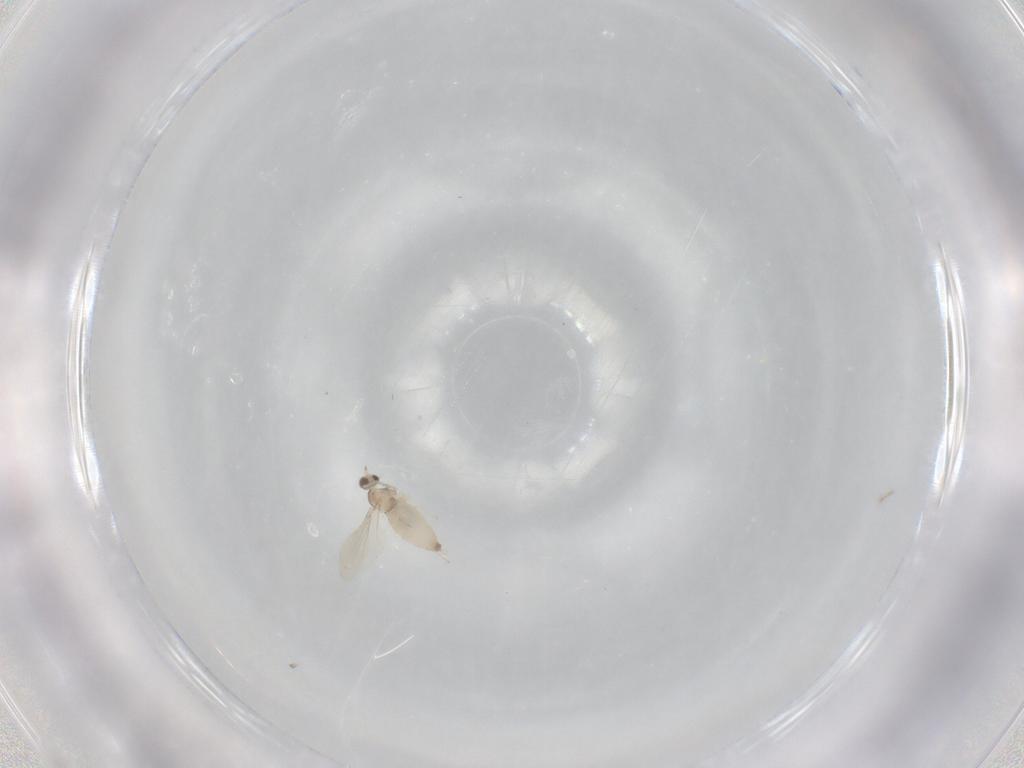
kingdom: Animalia
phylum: Arthropoda
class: Insecta
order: Diptera
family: Cecidomyiidae
